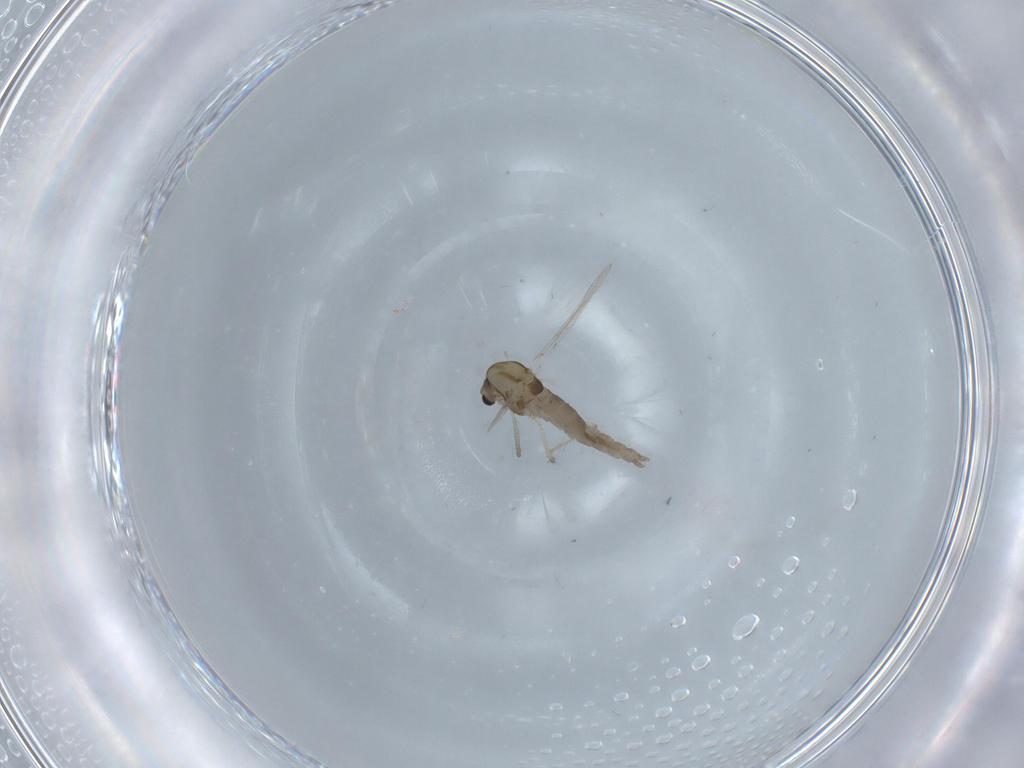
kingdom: Animalia
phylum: Arthropoda
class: Insecta
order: Diptera
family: Chironomidae
